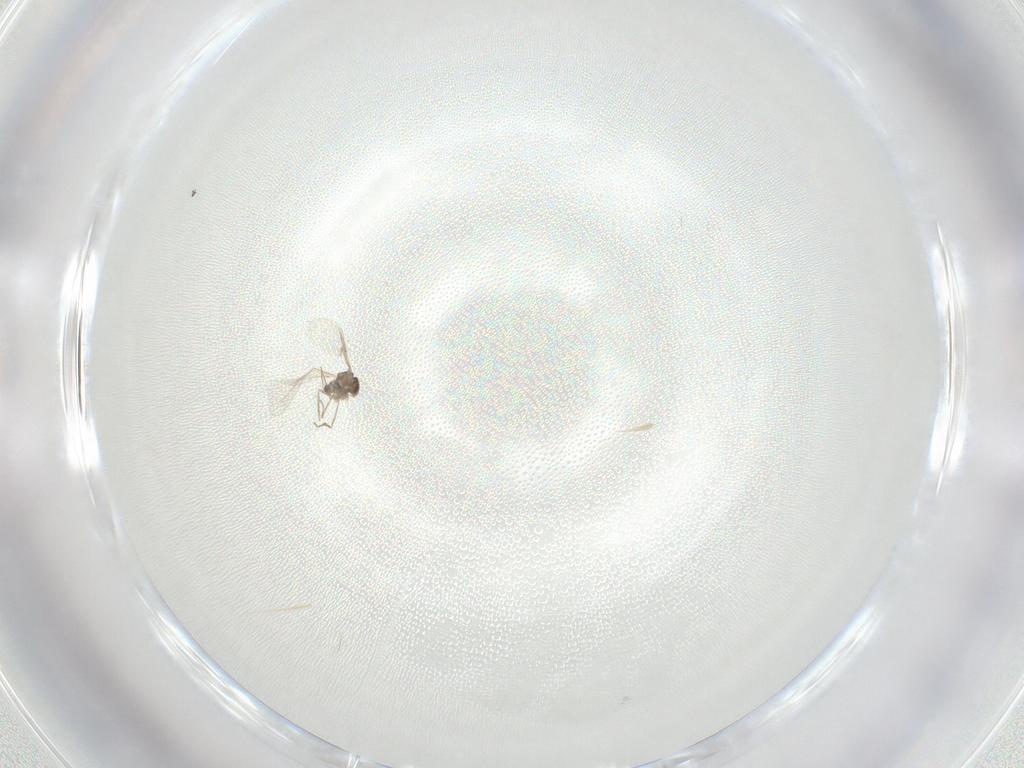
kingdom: Animalia
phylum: Arthropoda
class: Insecta
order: Diptera
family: Cecidomyiidae
